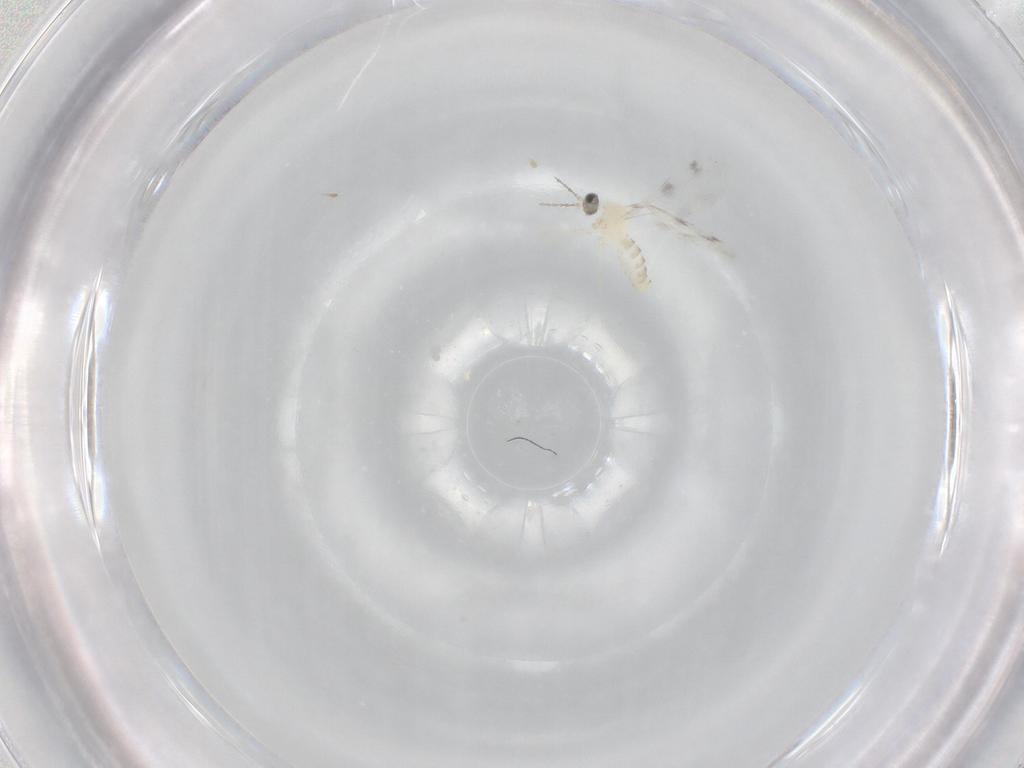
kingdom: Animalia
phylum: Arthropoda
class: Insecta
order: Diptera
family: Cecidomyiidae
